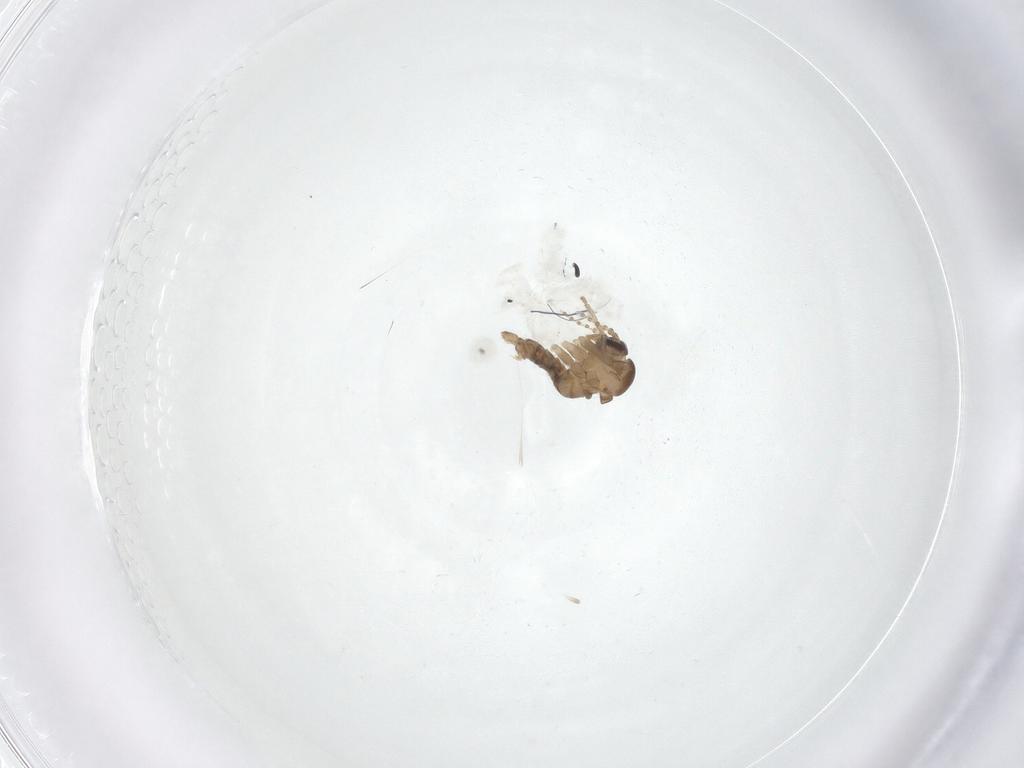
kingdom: Animalia
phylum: Arthropoda
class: Insecta
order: Diptera
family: Psychodidae
